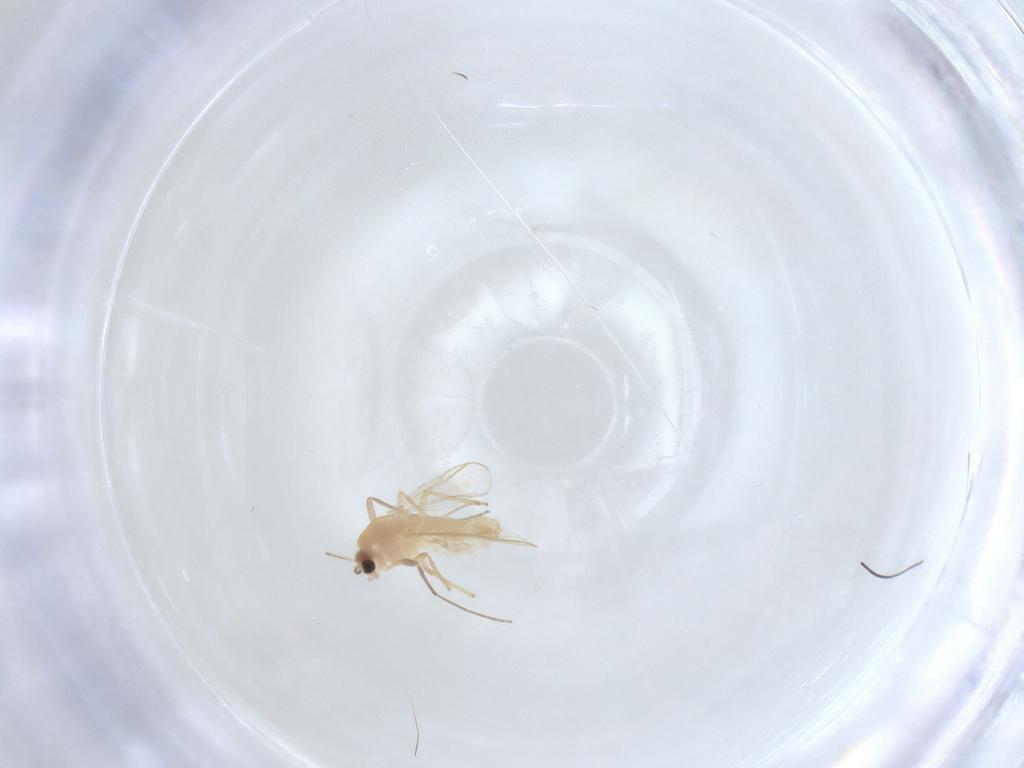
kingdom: Animalia
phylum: Arthropoda
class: Insecta
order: Diptera
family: Chironomidae
